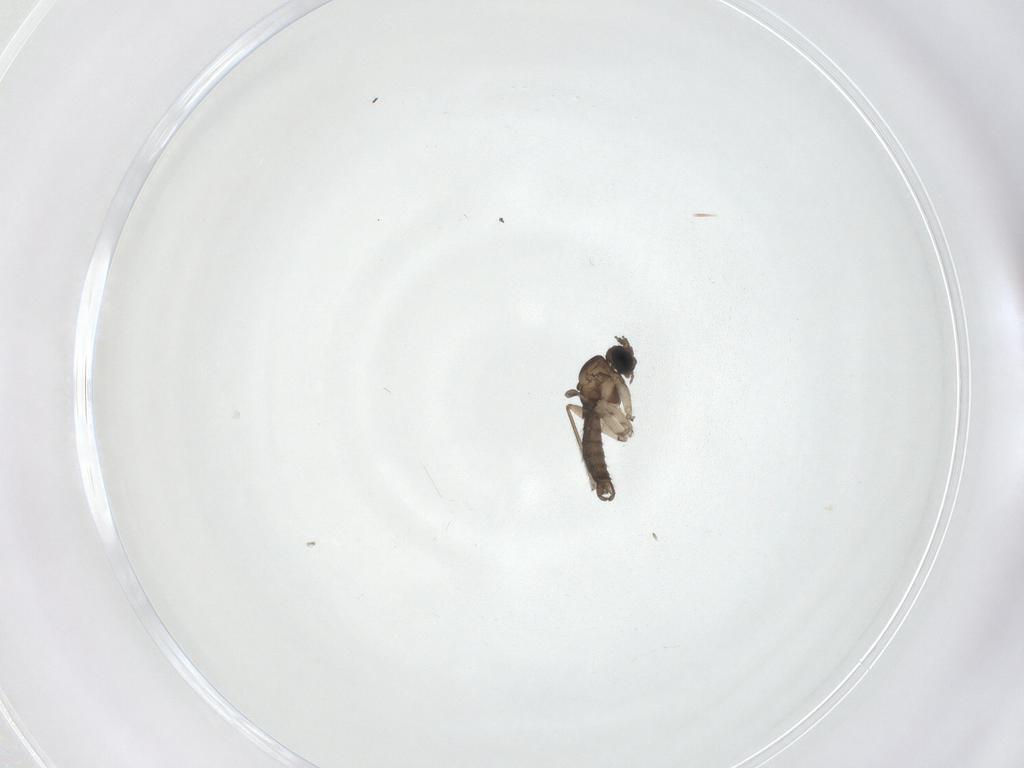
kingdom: Animalia
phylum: Arthropoda
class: Insecta
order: Diptera
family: Sciaridae
